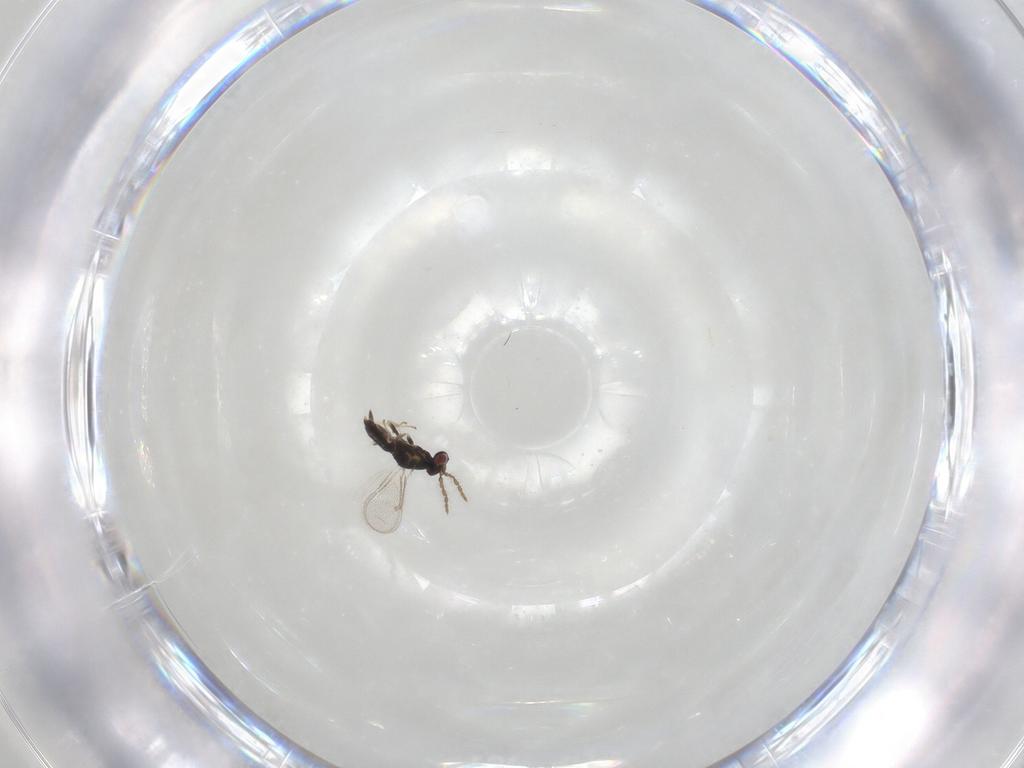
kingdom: Animalia
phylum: Arthropoda
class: Insecta
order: Hymenoptera
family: Eulophidae
